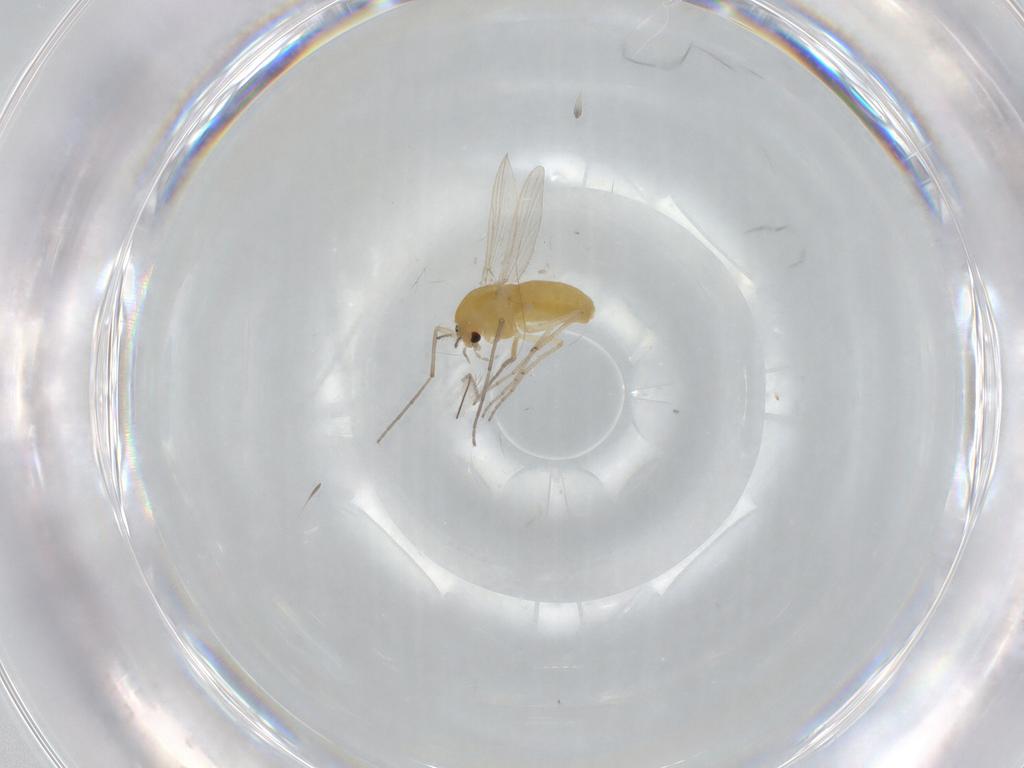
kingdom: Animalia
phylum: Arthropoda
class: Insecta
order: Diptera
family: Chironomidae
